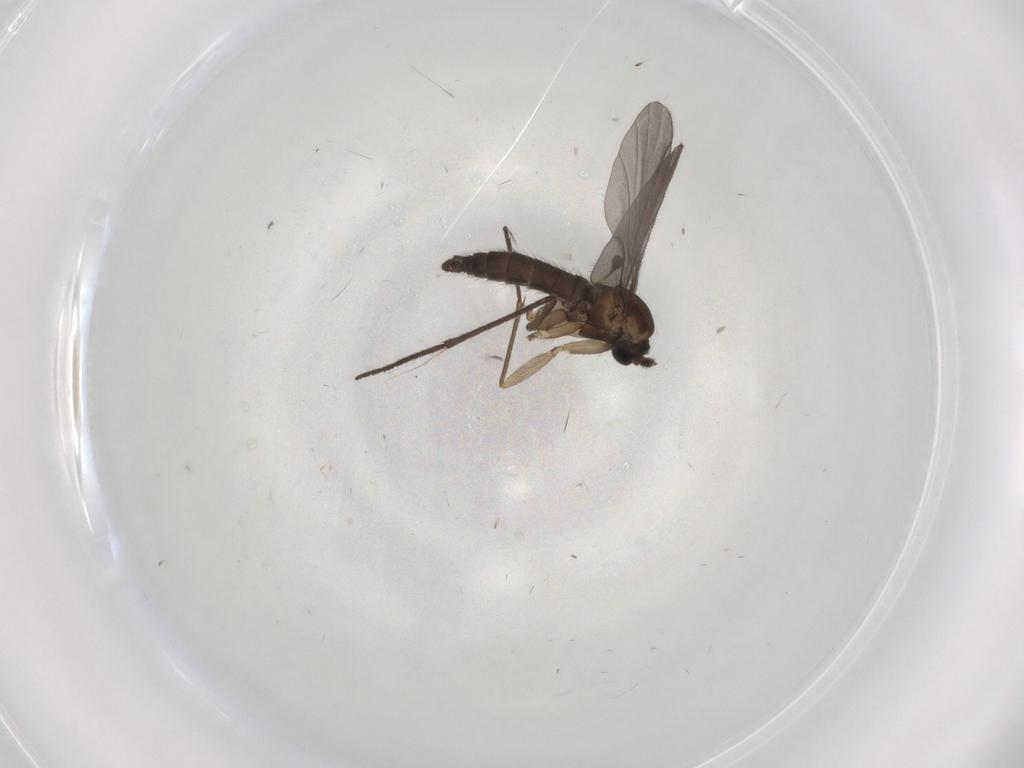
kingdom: Animalia
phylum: Arthropoda
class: Insecta
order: Diptera
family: Sciaridae
